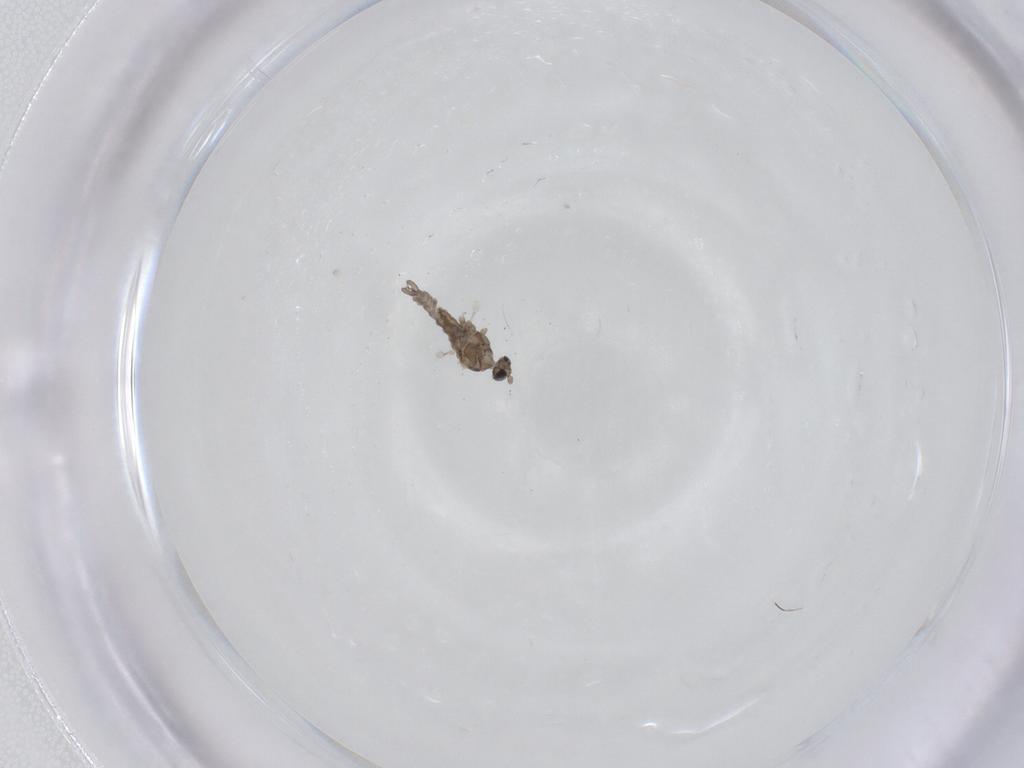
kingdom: Animalia
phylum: Arthropoda
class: Insecta
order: Diptera
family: Cecidomyiidae
